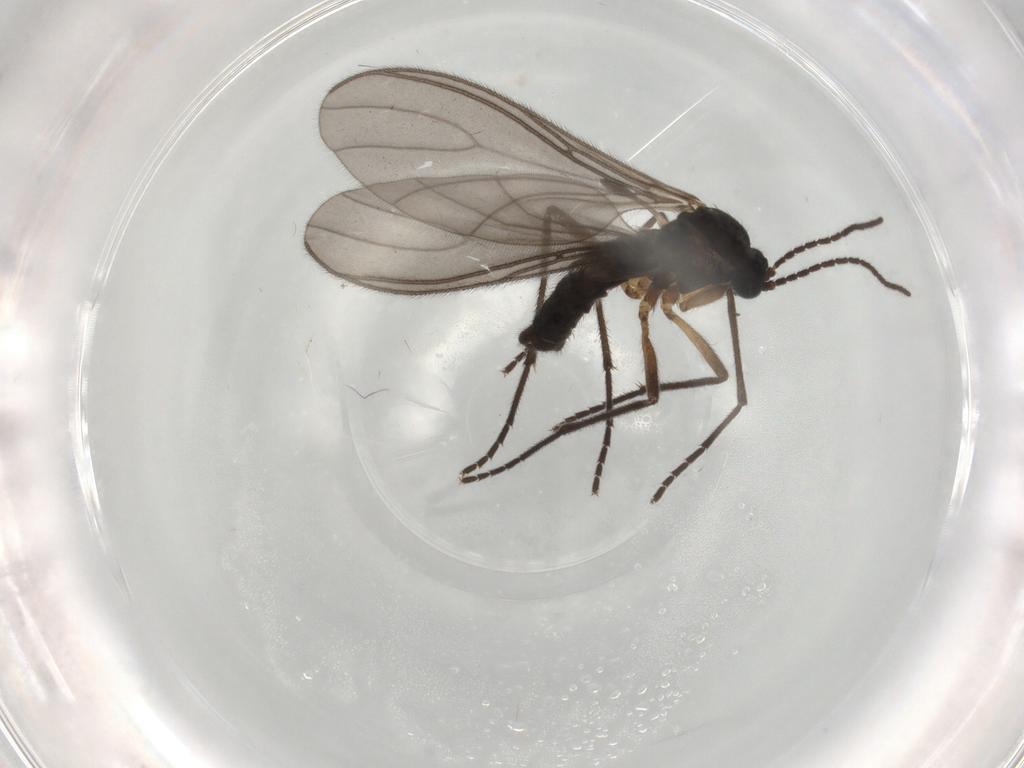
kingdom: Animalia
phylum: Arthropoda
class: Insecta
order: Diptera
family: Sciaridae
